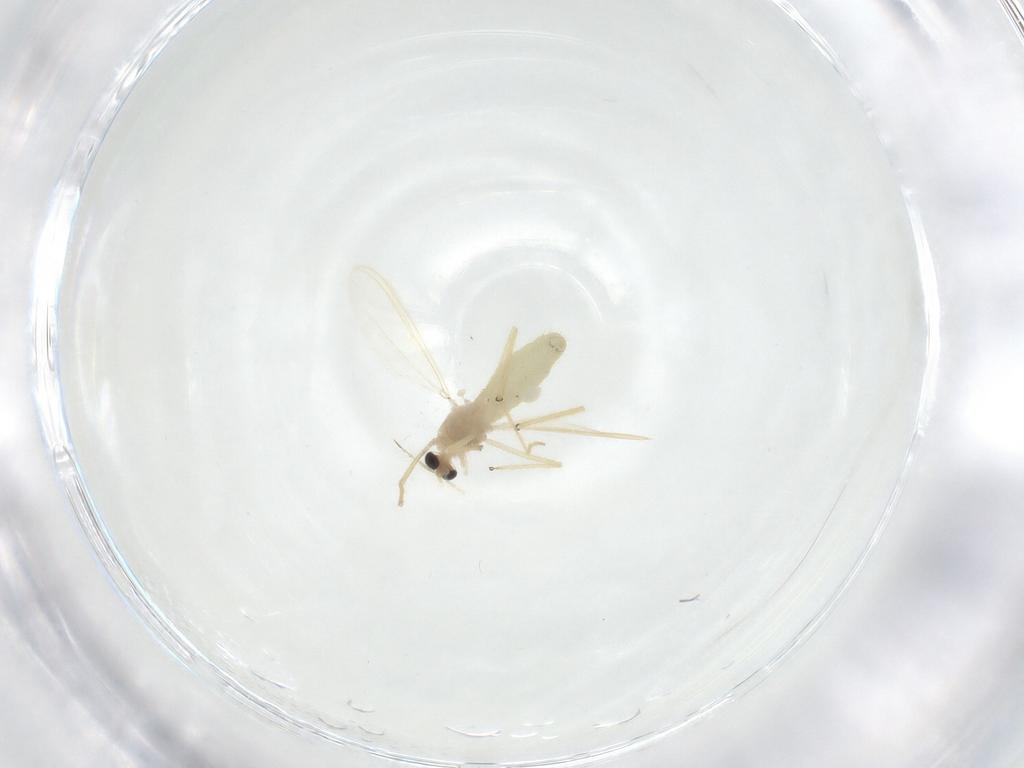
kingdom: Animalia
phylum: Arthropoda
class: Insecta
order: Diptera
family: Chironomidae
